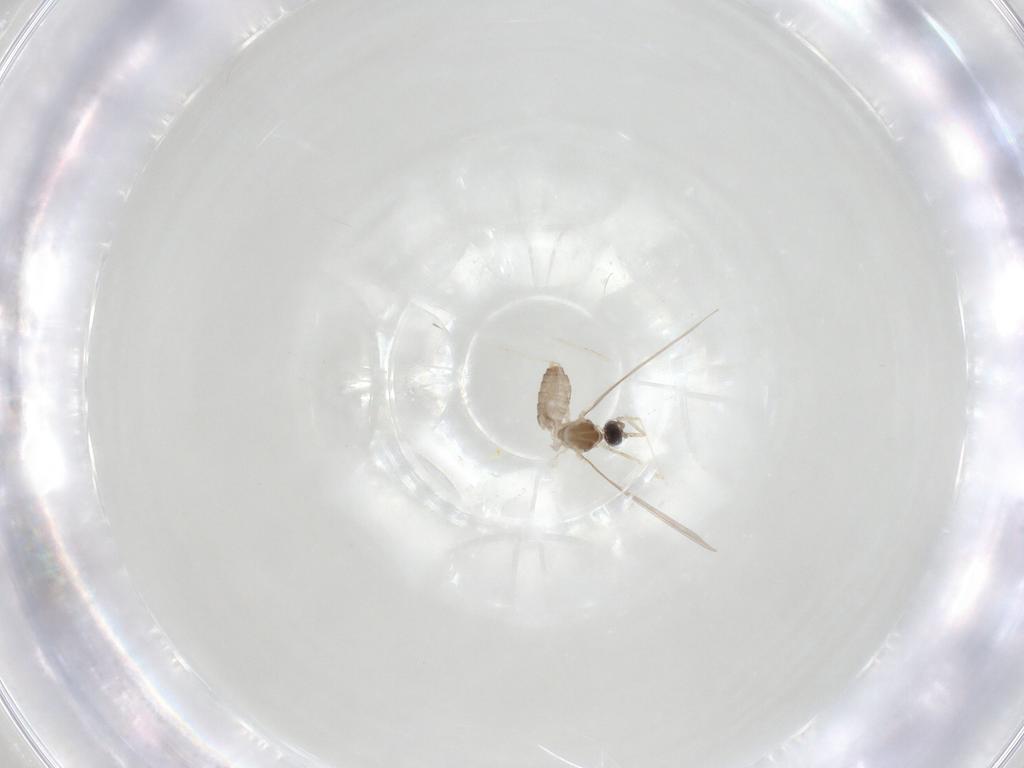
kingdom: Animalia
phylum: Arthropoda
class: Insecta
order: Diptera
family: Cecidomyiidae
